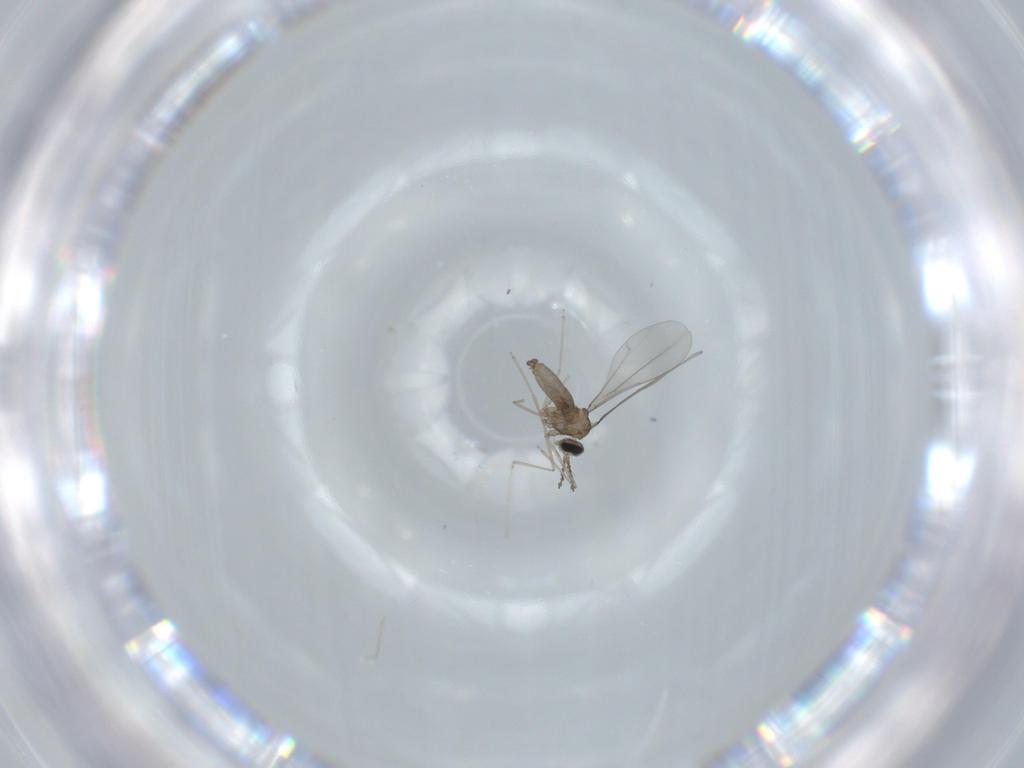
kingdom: Animalia
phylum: Arthropoda
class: Insecta
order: Diptera
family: Cecidomyiidae
